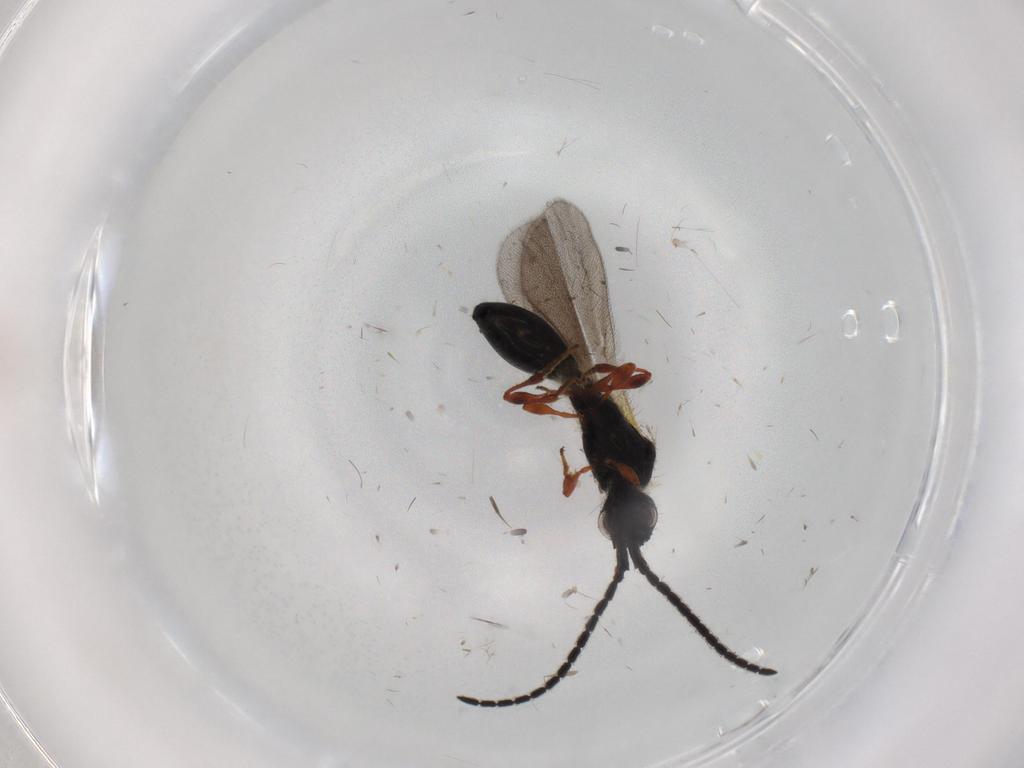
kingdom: Animalia
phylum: Arthropoda
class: Insecta
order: Hymenoptera
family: Diapriidae
